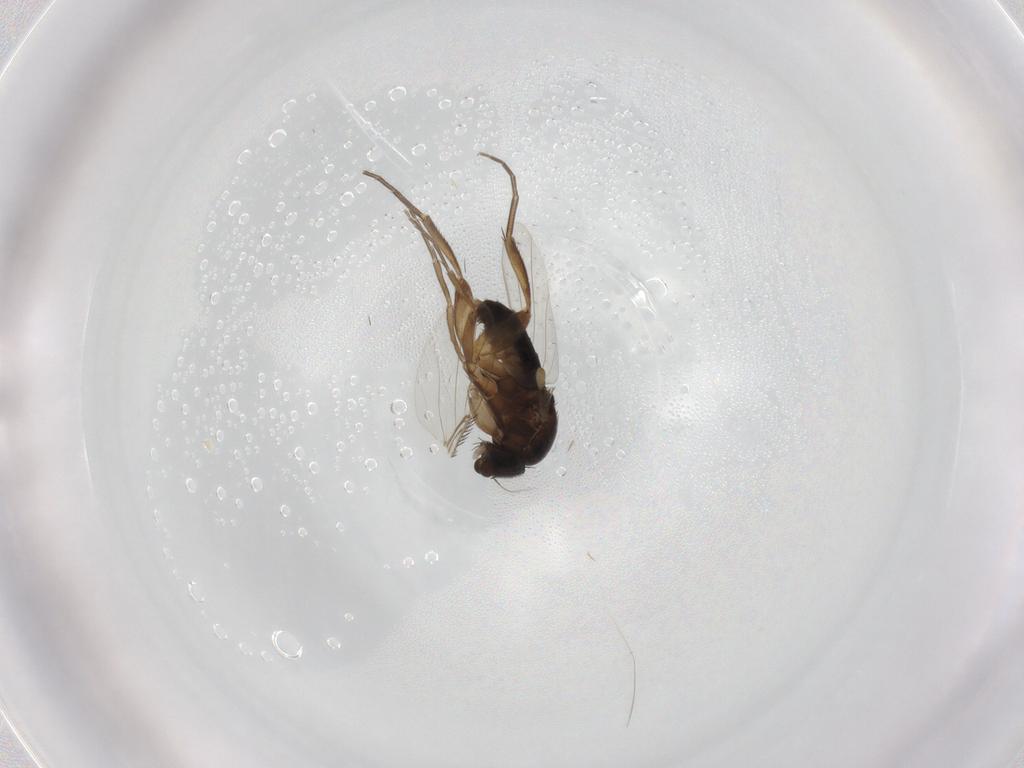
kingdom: Animalia
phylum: Arthropoda
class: Insecta
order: Diptera
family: Phoridae
